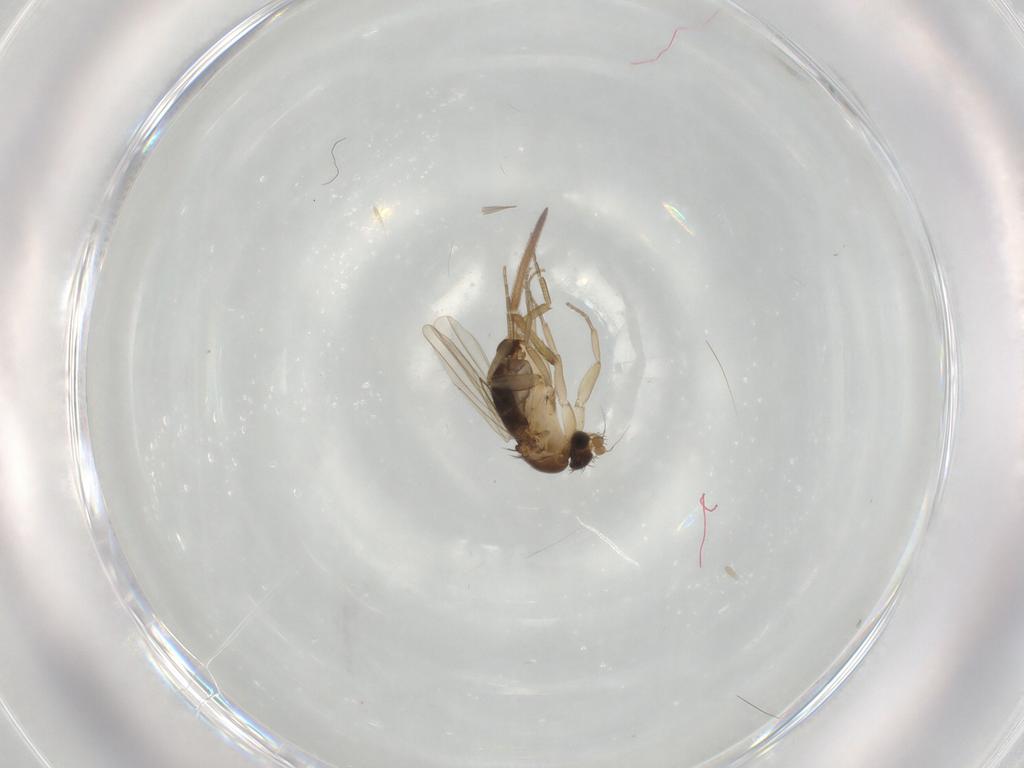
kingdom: Animalia
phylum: Arthropoda
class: Insecta
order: Diptera
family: Phoridae
